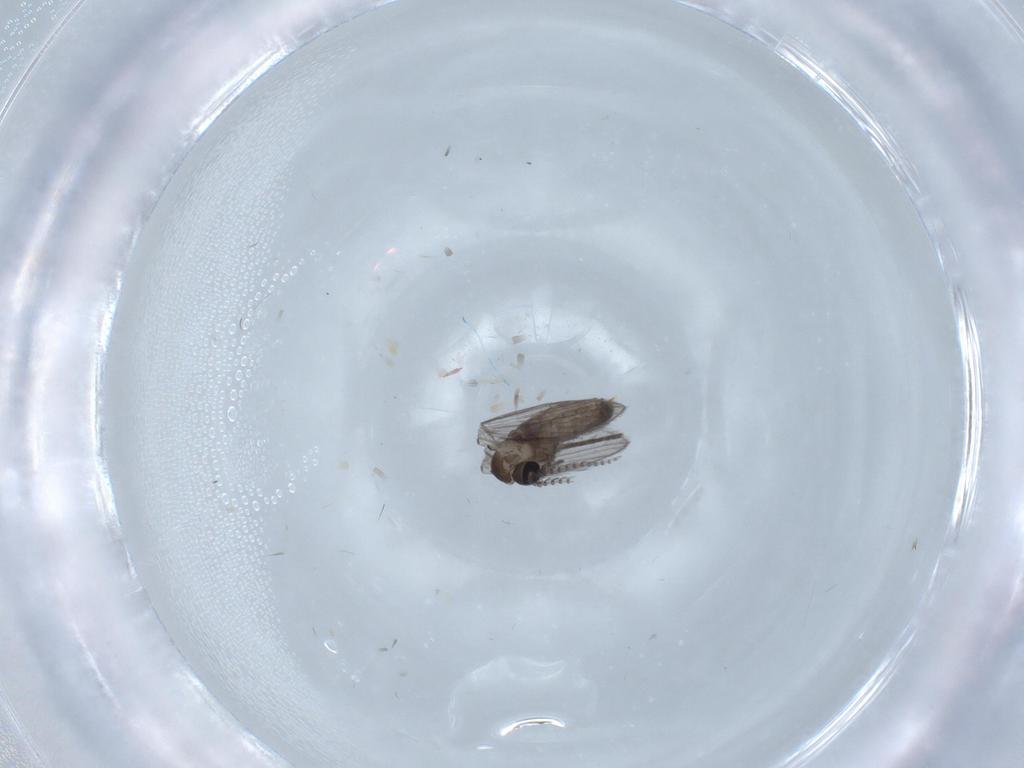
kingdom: Animalia
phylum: Arthropoda
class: Insecta
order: Diptera
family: Muscidae
